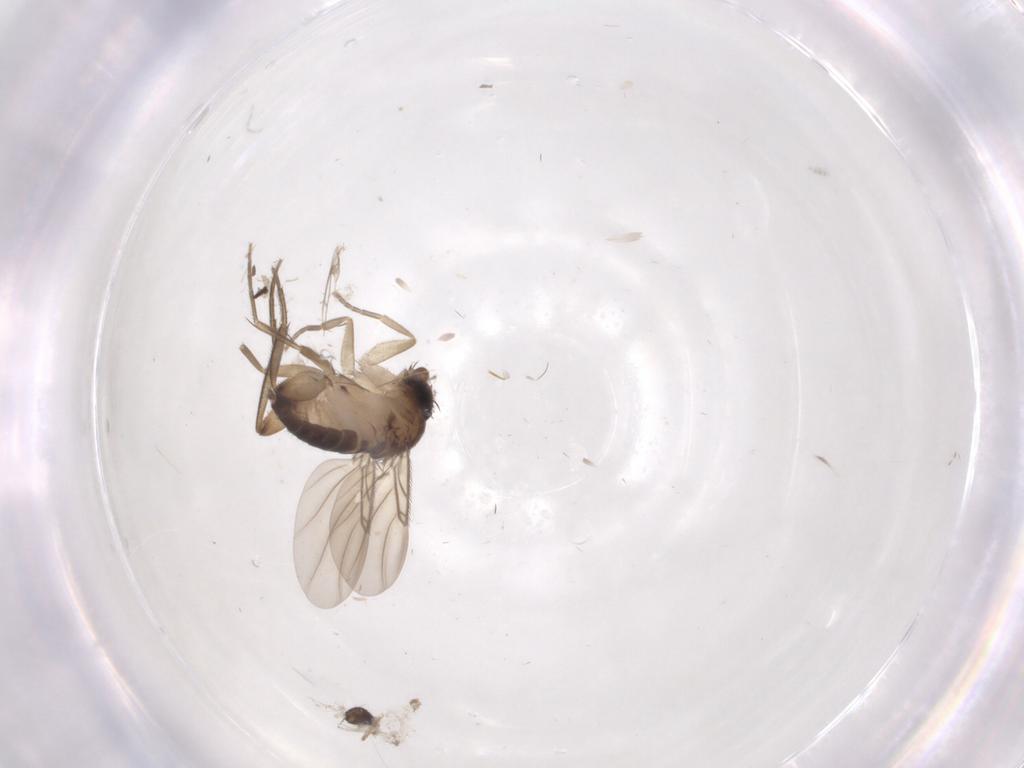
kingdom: Animalia
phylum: Arthropoda
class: Insecta
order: Diptera
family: Phoridae
